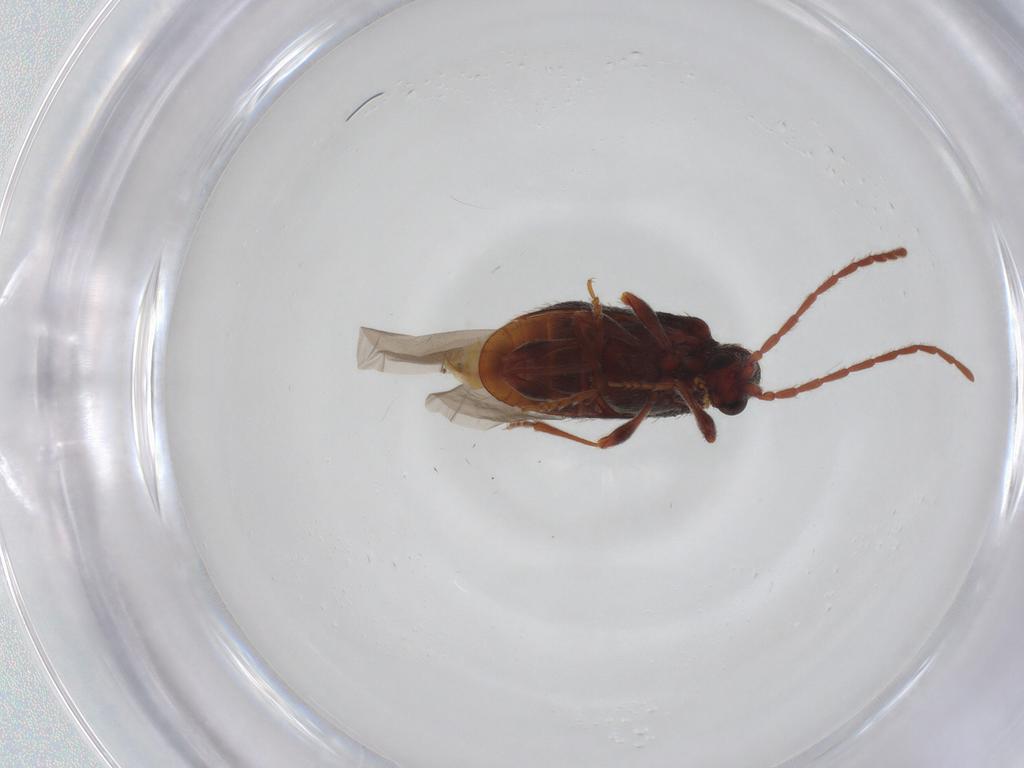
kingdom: Animalia
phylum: Arthropoda
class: Insecta
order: Coleoptera
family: Ptinidae
